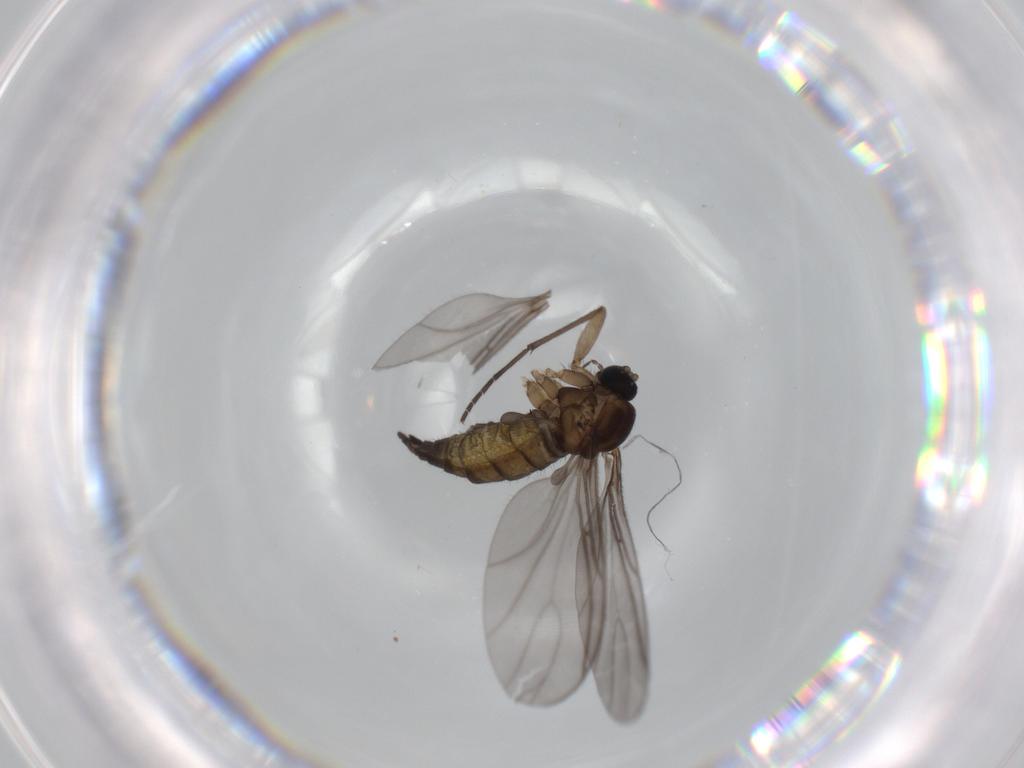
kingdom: Animalia
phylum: Arthropoda
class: Insecta
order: Diptera
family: Sciaridae
